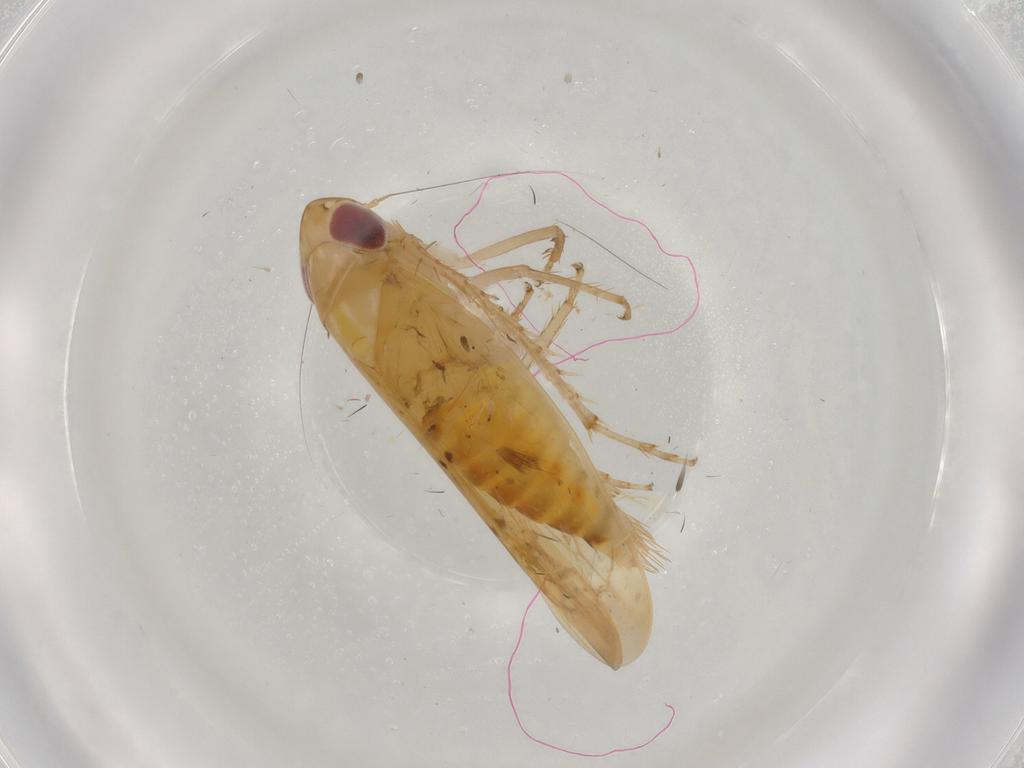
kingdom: Animalia
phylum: Arthropoda
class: Insecta
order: Hemiptera
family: Cicadellidae
